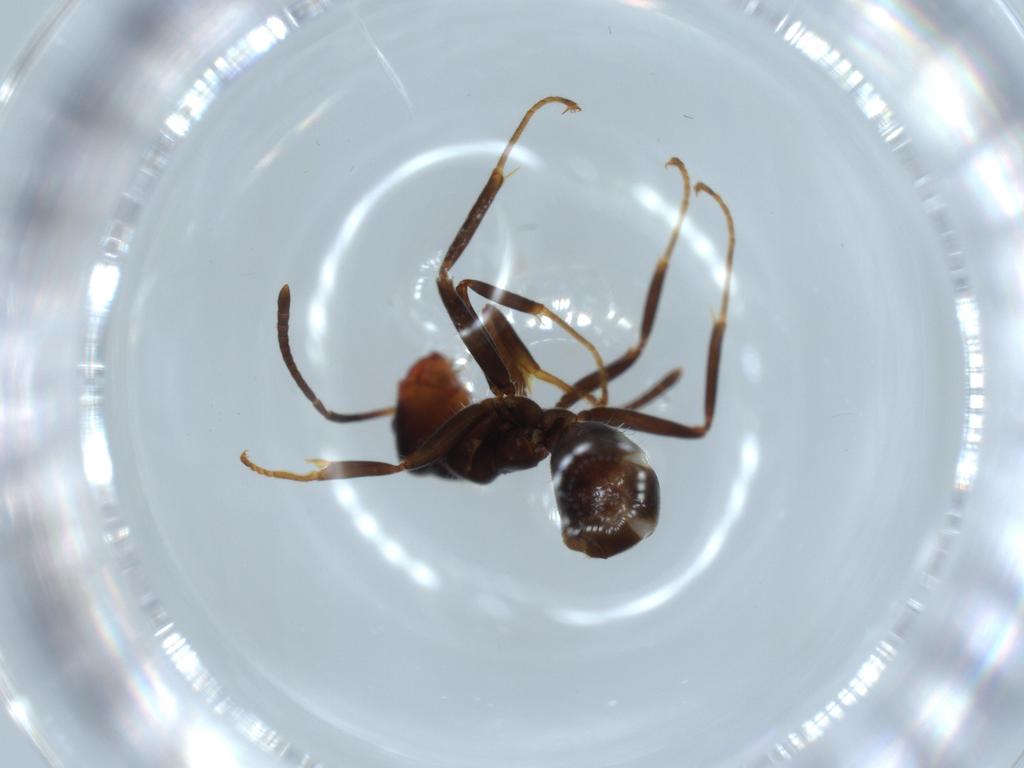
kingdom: Animalia
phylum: Arthropoda
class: Insecta
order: Hymenoptera
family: Formicidae
